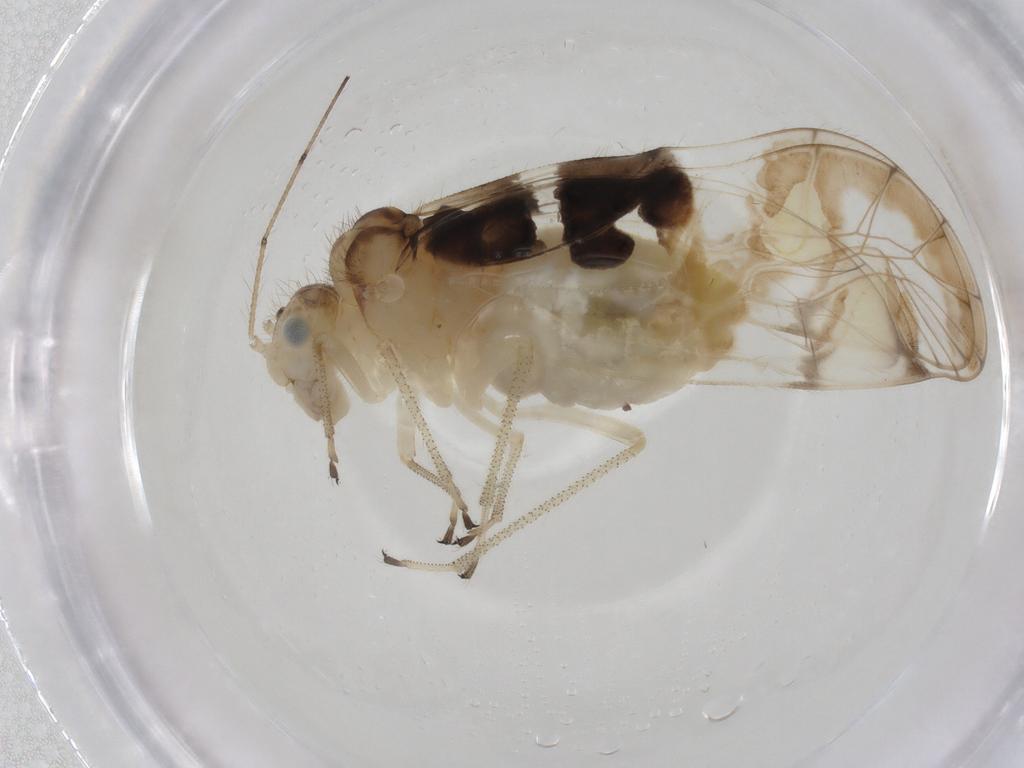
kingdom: Animalia
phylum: Arthropoda
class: Insecta
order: Psocodea
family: Amphipsocidae
